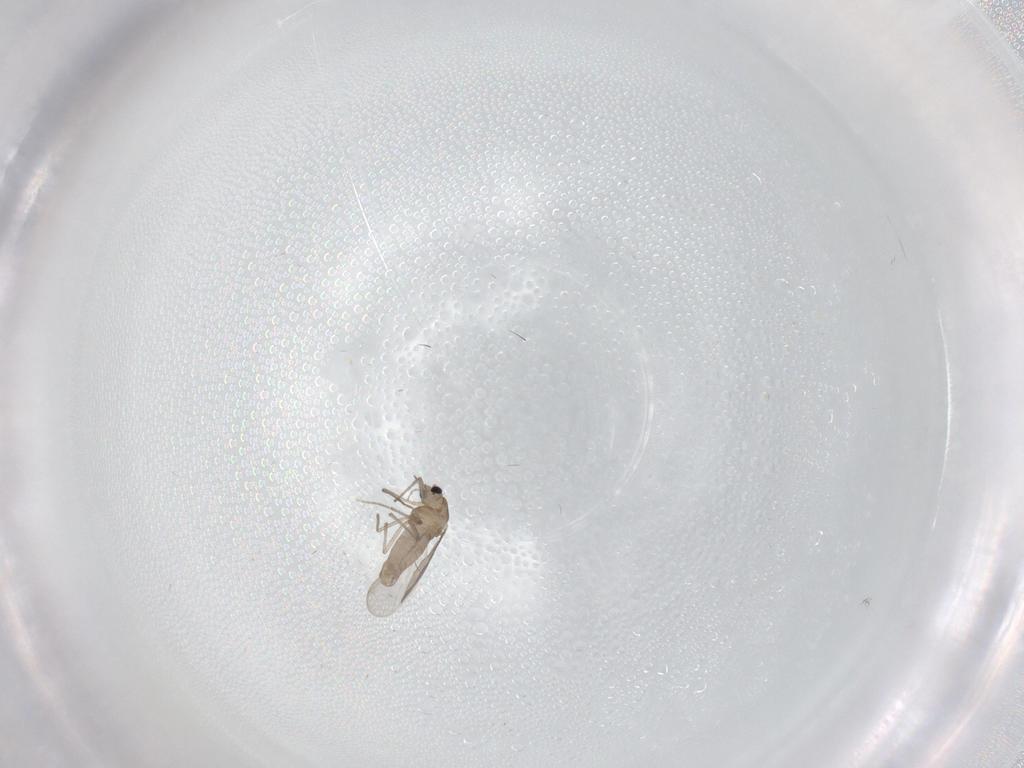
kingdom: Animalia
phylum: Arthropoda
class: Insecta
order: Diptera
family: Chironomidae
